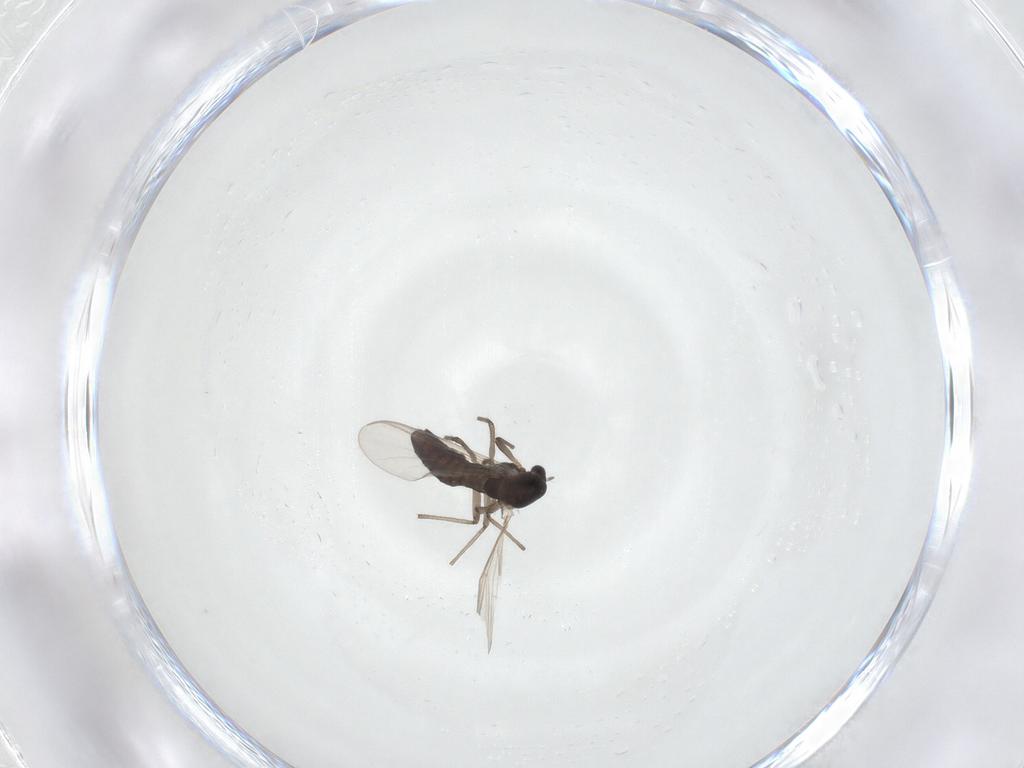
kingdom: Animalia
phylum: Arthropoda
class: Insecta
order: Diptera
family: Chironomidae
